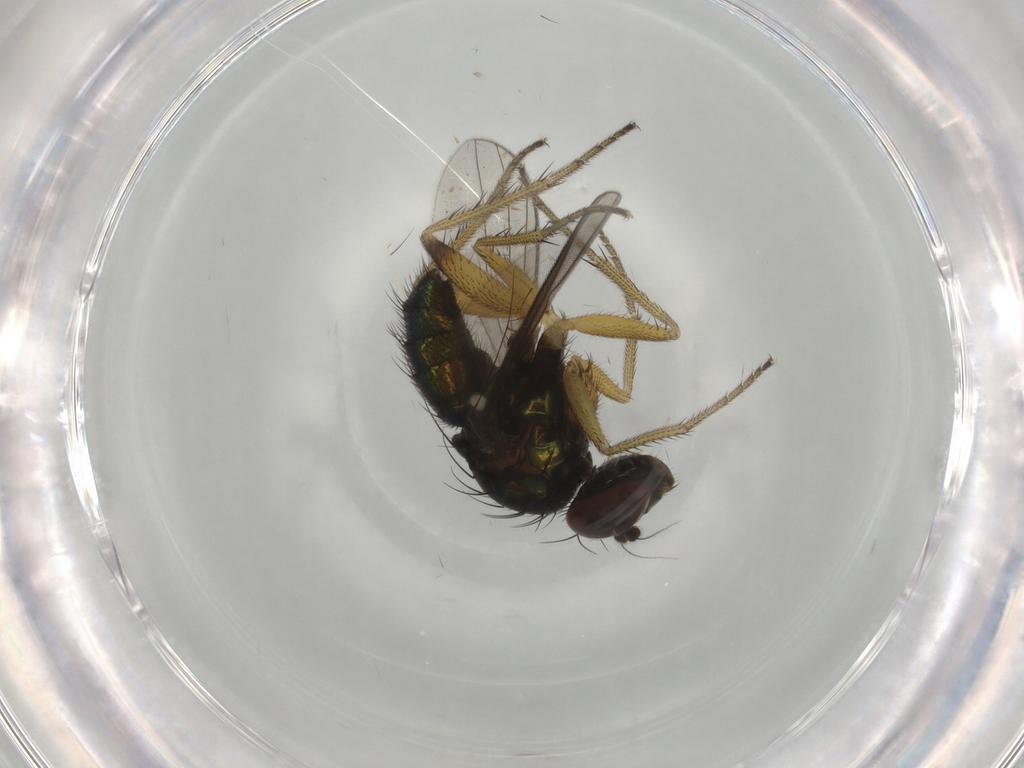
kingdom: Animalia
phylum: Arthropoda
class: Insecta
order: Diptera
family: Dolichopodidae
